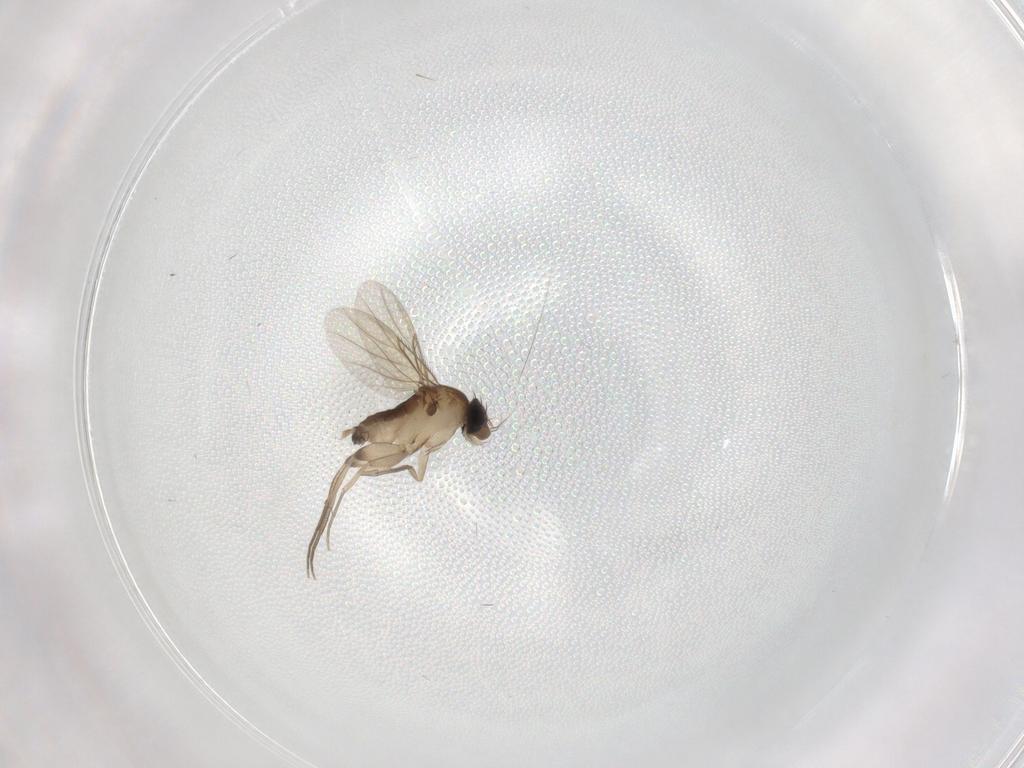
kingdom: Animalia
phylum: Arthropoda
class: Insecta
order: Diptera
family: Phoridae
